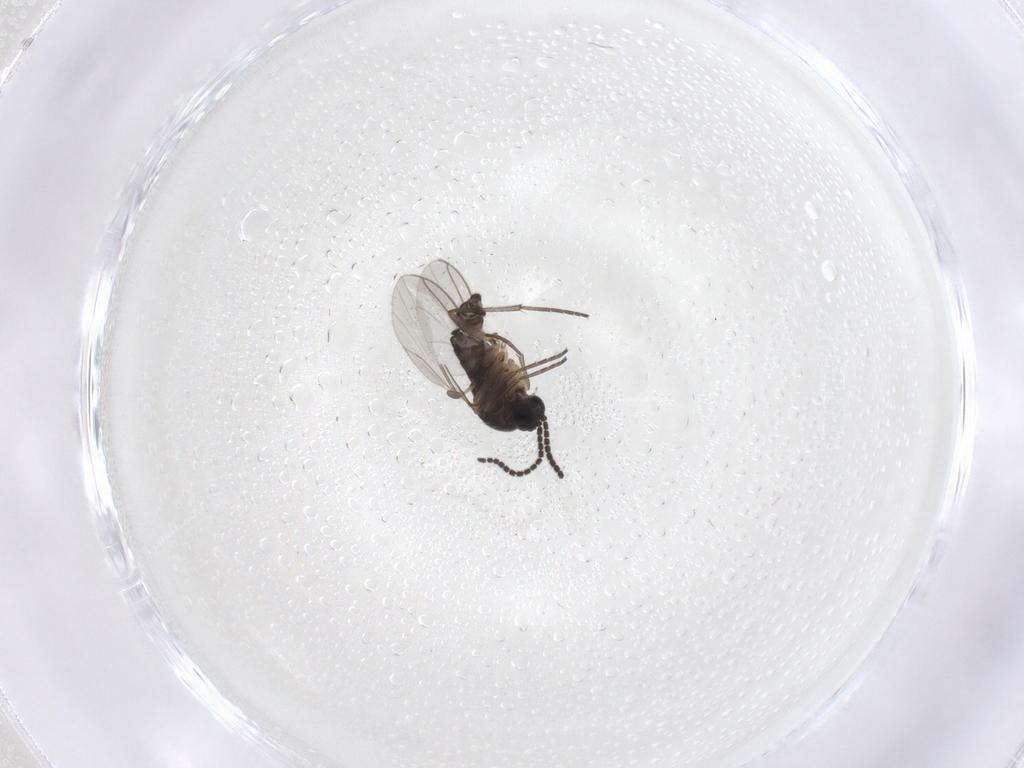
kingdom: Animalia
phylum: Arthropoda
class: Insecta
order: Diptera
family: Sciaridae
